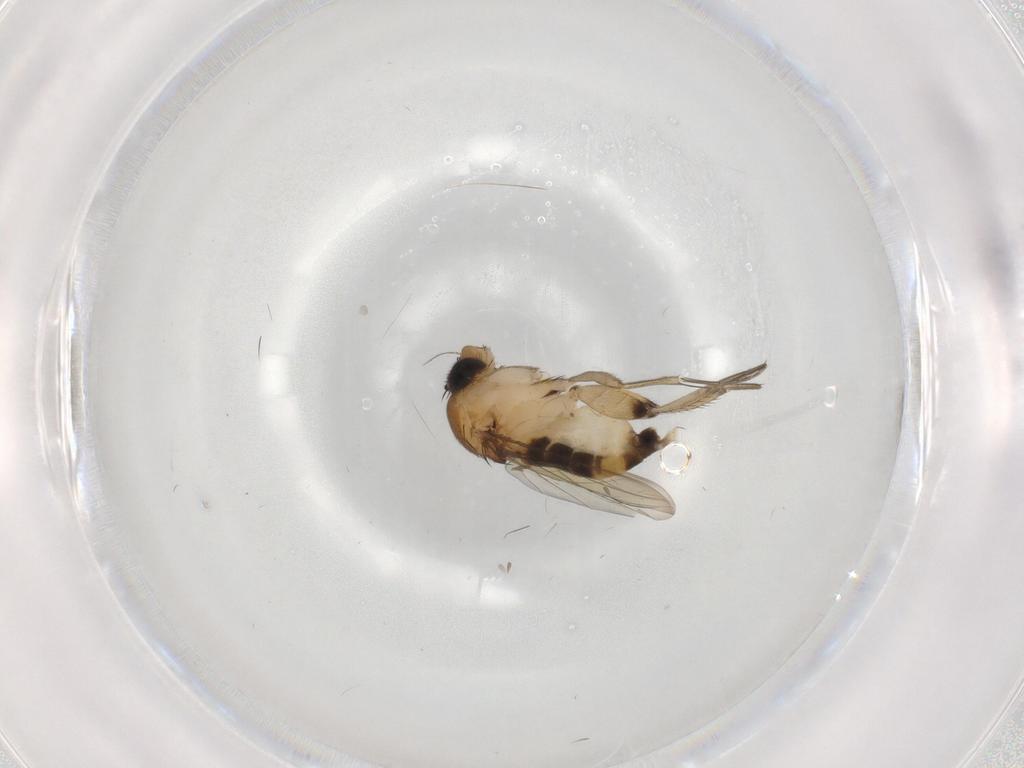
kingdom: Animalia
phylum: Arthropoda
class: Insecta
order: Diptera
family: Phoridae
